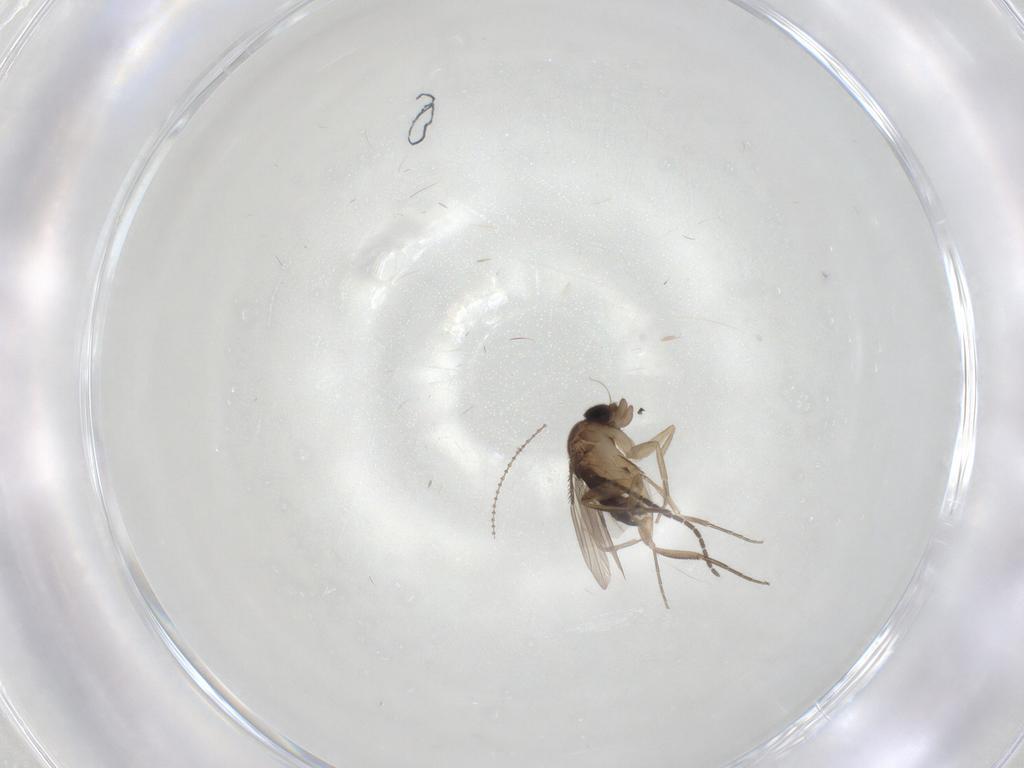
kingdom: Animalia
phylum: Arthropoda
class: Insecta
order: Diptera
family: Phoridae
